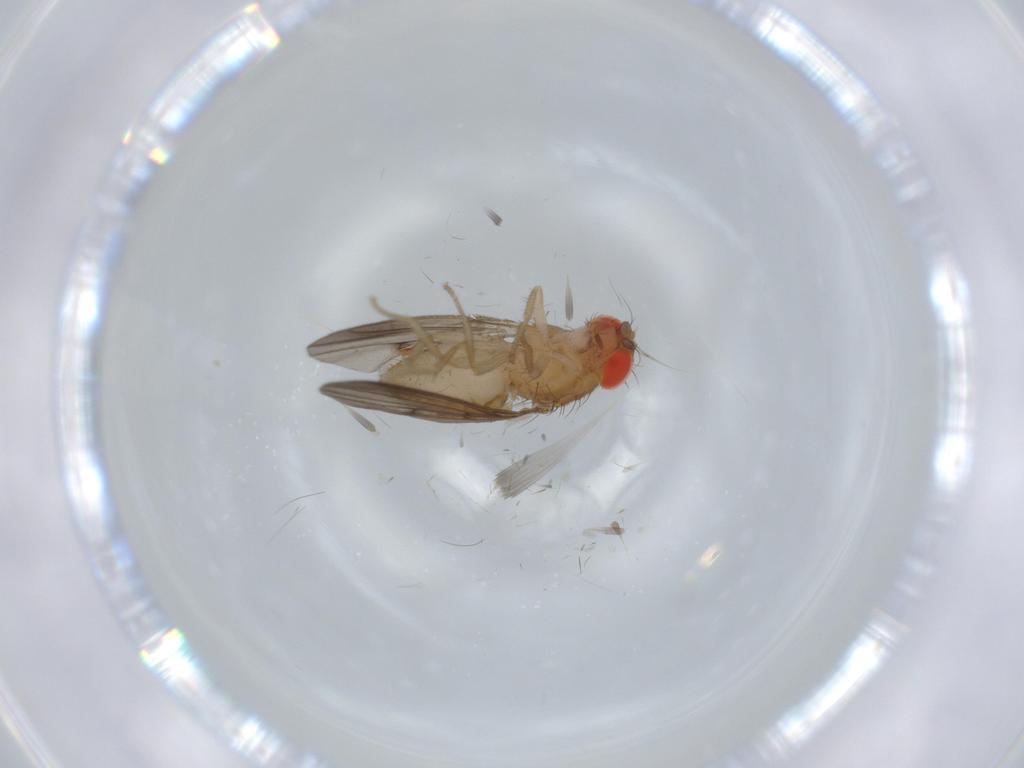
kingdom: Animalia
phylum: Arthropoda
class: Insecta
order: Diptera
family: Drosophilidae
